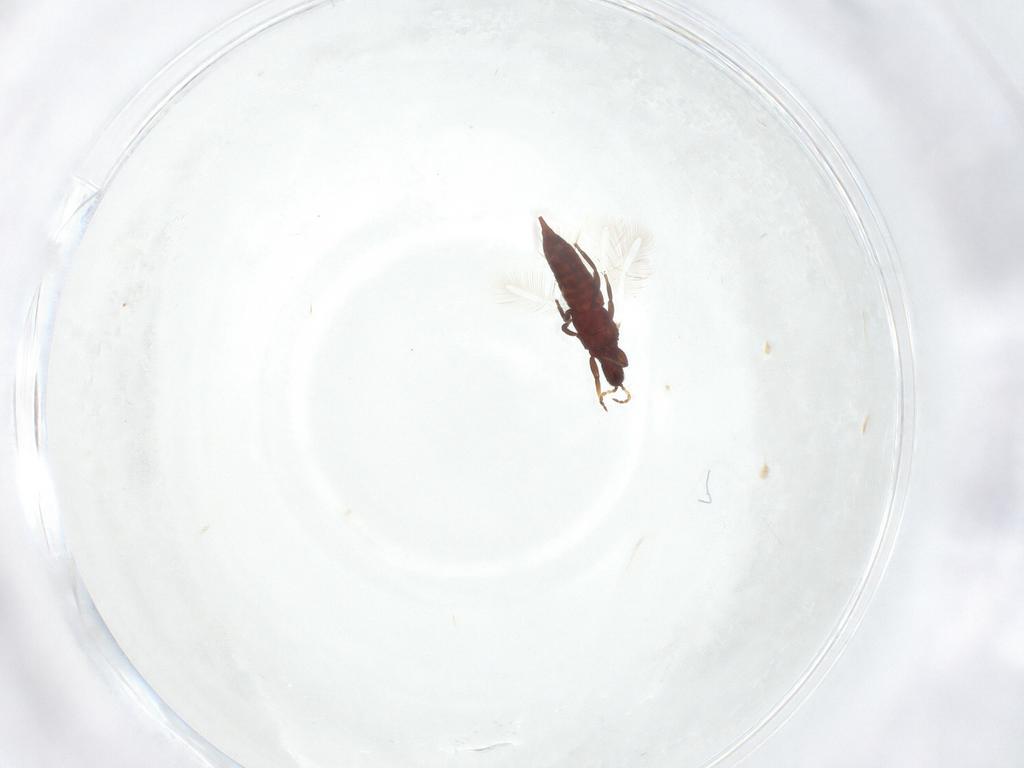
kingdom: Animalia
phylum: Arthropoda
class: Insecta
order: Thysanoptera
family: Phlaeothripidae
